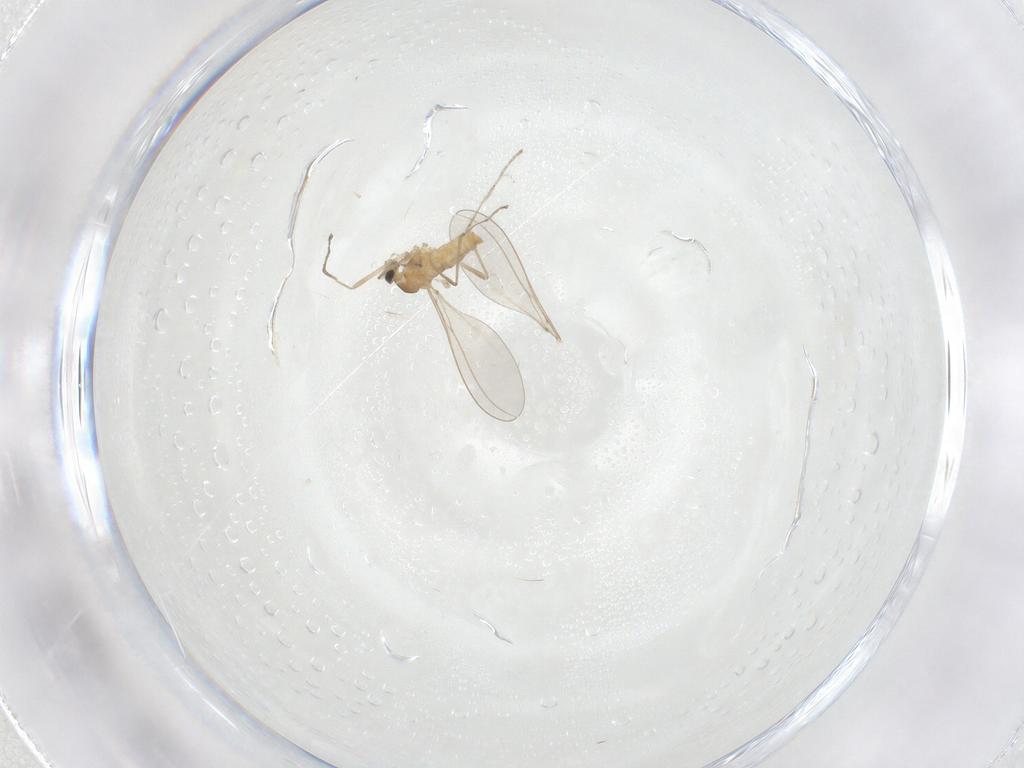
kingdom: Animalia
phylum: Arthropoda
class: Insecta
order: Diptera
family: Cecidomyiidae
